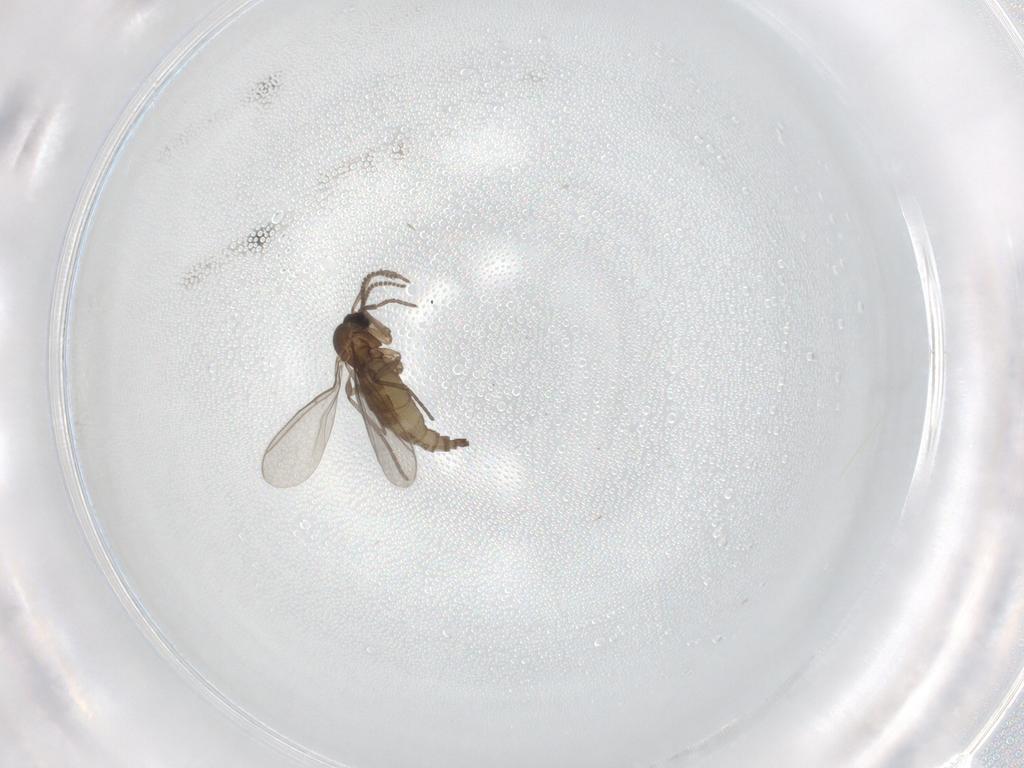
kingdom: Animalia
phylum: Arthropoda
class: Insecta
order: Diptera
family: Sciaridae
